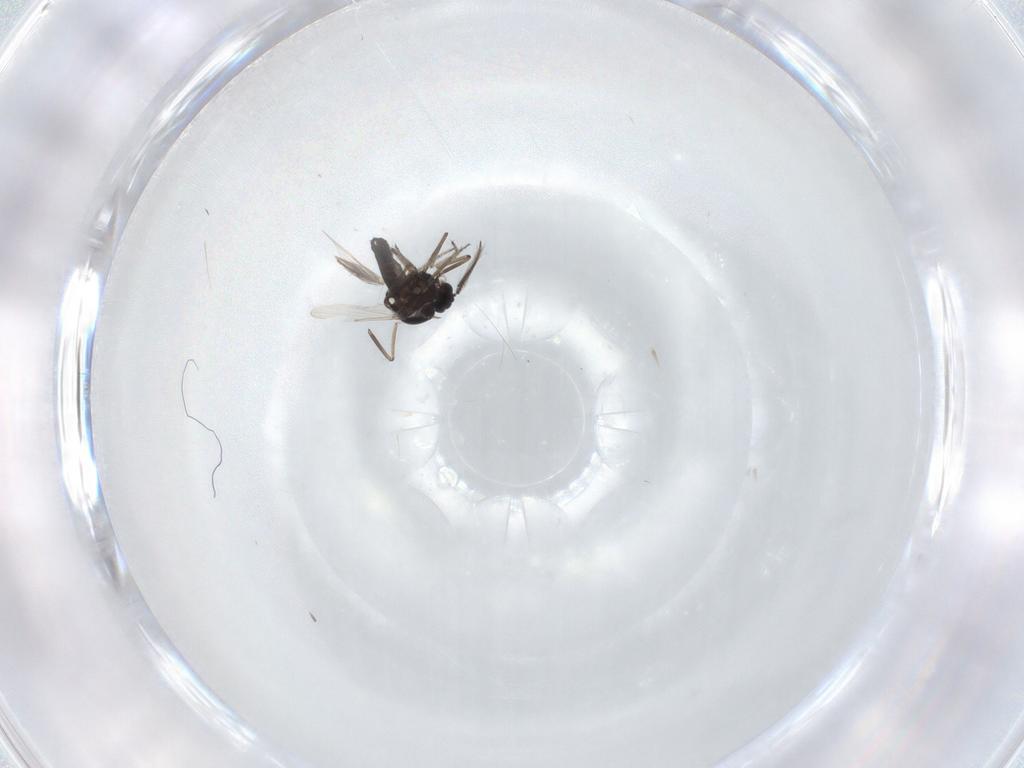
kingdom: Animalia
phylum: Arthropoda
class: Insecta
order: Diptera
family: Ceratopogonidae
